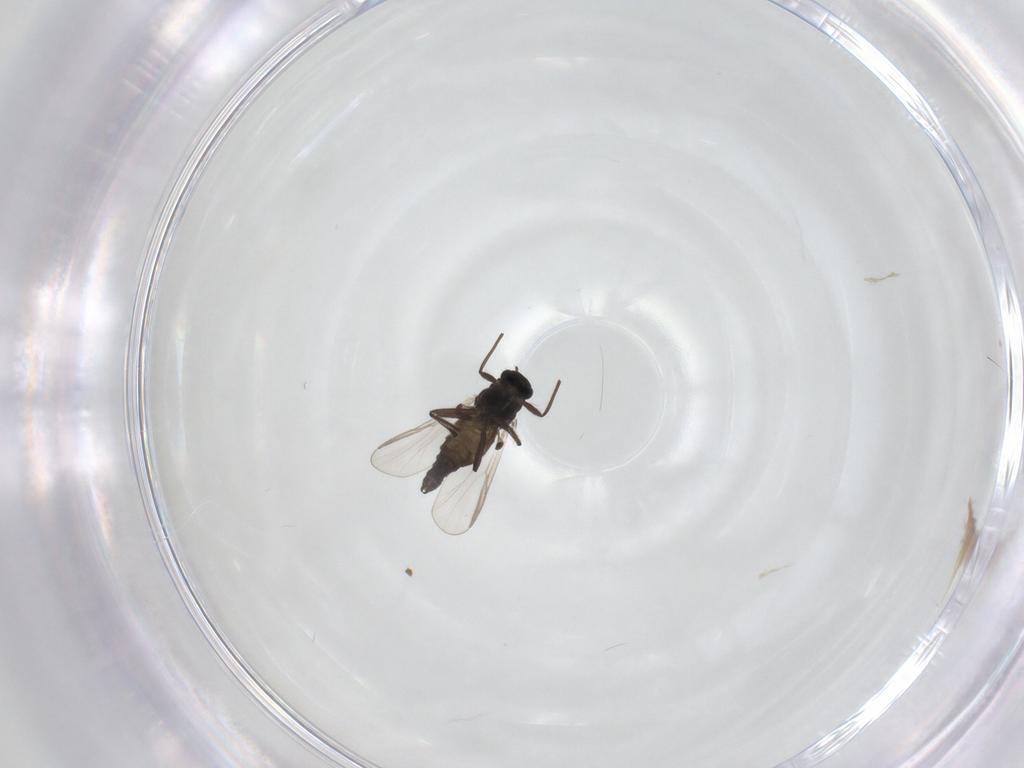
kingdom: Animalia
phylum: Arthropoda
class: Insecta
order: Diptera
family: Chironomidae
